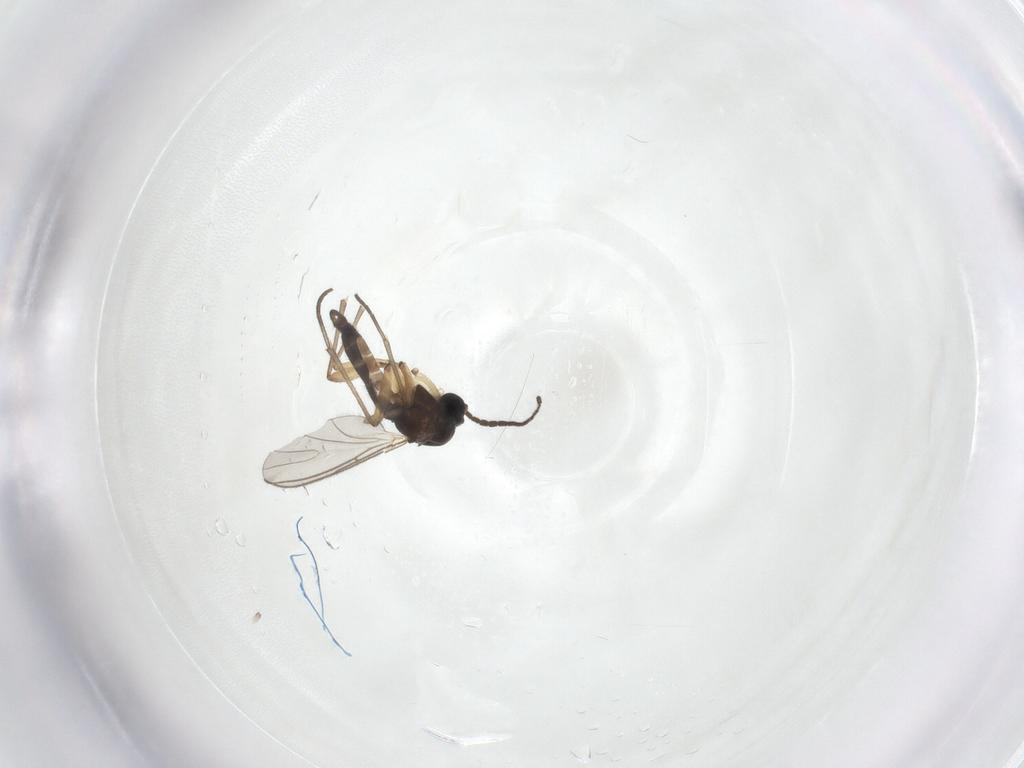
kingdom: Animalia
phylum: Arthropoda
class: Insecta
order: Diptera
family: Sciaridae
